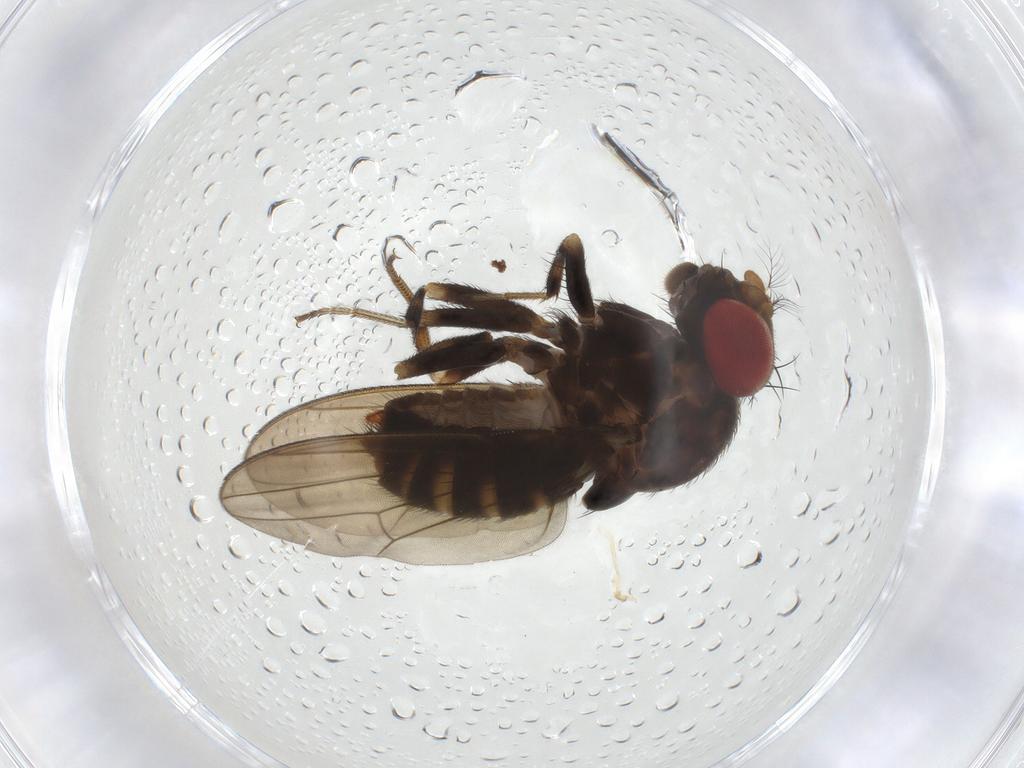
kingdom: Animalia
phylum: Arthropoda
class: Insecta
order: Diptera
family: Drosophilidae
